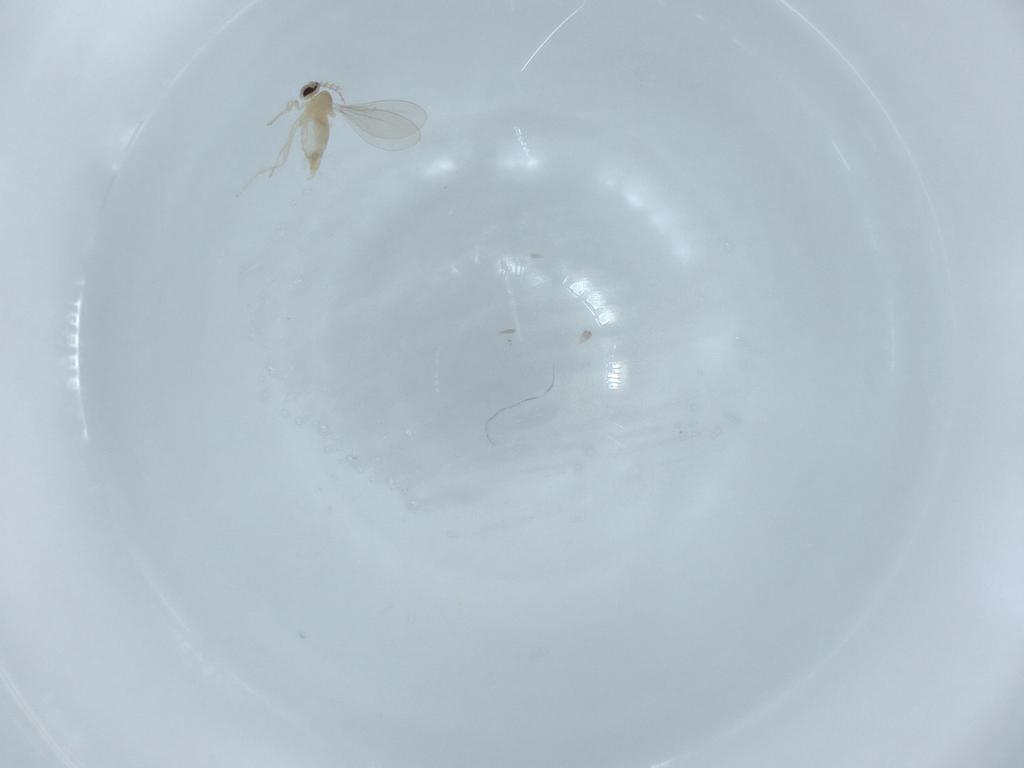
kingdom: Animalia
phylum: Arthropoda
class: Insecta
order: Diptera
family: Cecidomyiidae
